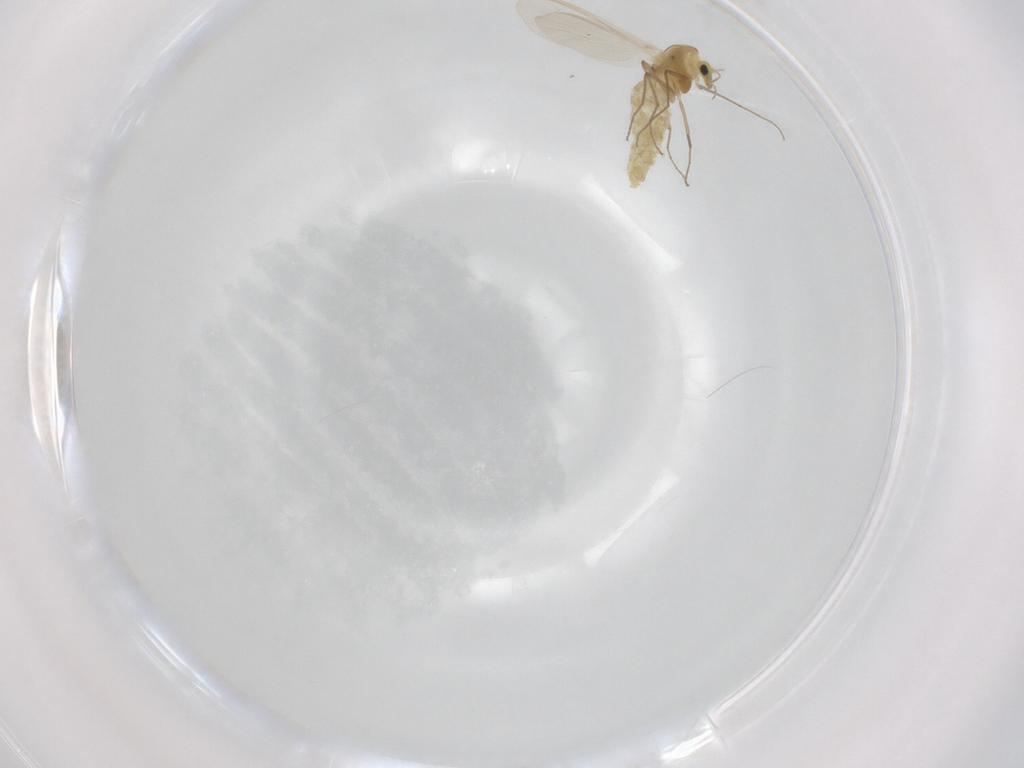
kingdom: Animalia
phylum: Arthropoda
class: Insecta
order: Diptera
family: Chironomidae
